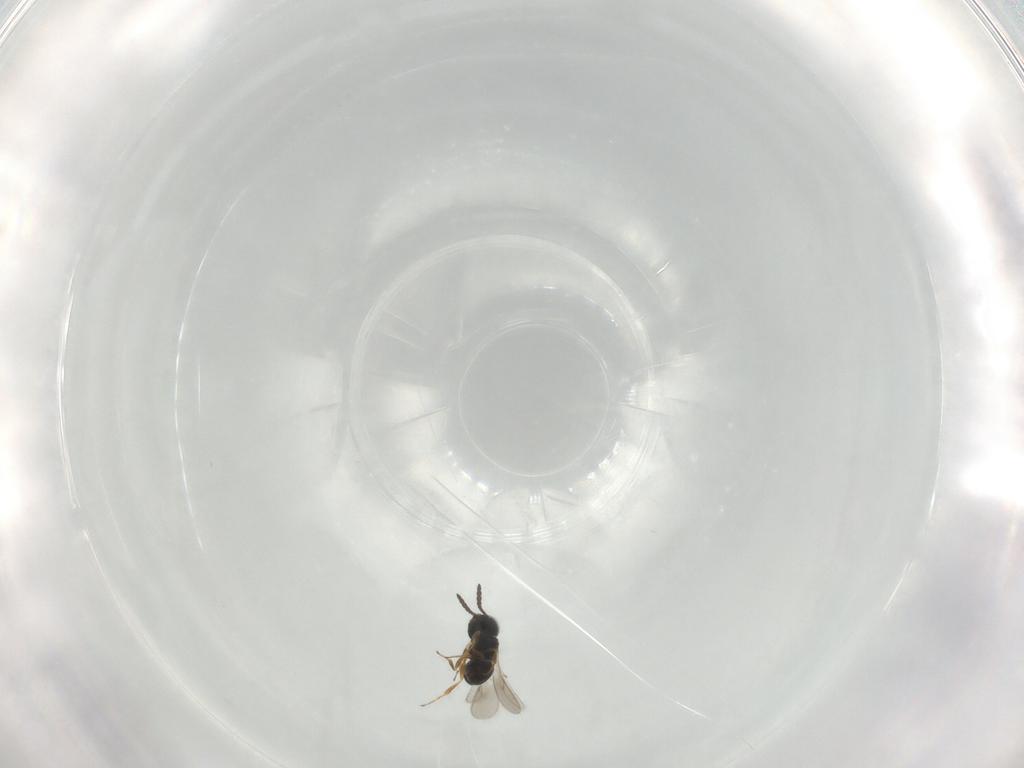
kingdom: Animalia
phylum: Arthropoda
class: Insecta
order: Hymenoptera
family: Scelionidae
